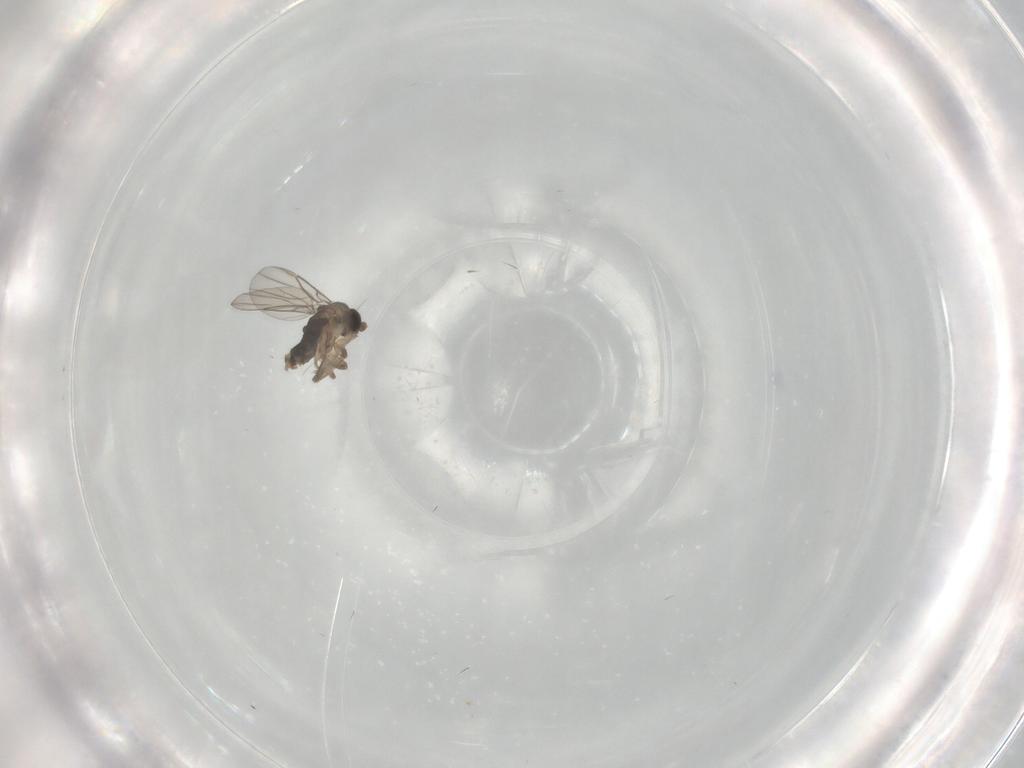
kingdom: Animalia
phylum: Arthropoda
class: Insecta
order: Diptera
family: Phoridae
